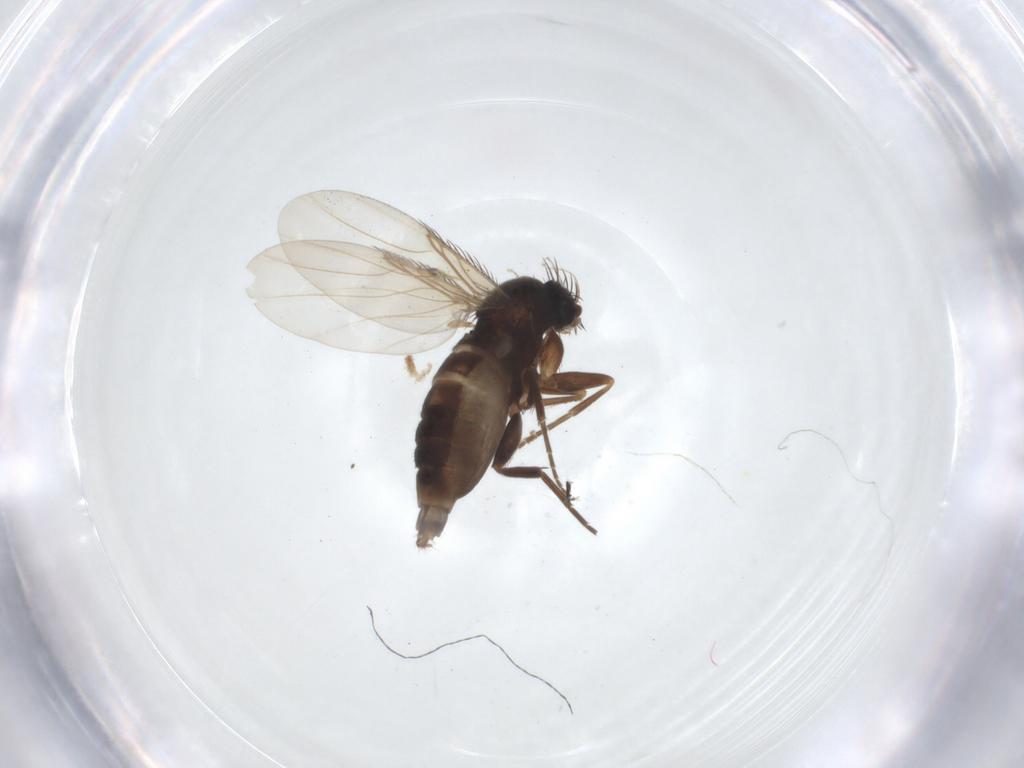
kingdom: Animalia
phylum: Arthropoda
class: Insecta
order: Diptera
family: Phoridae
